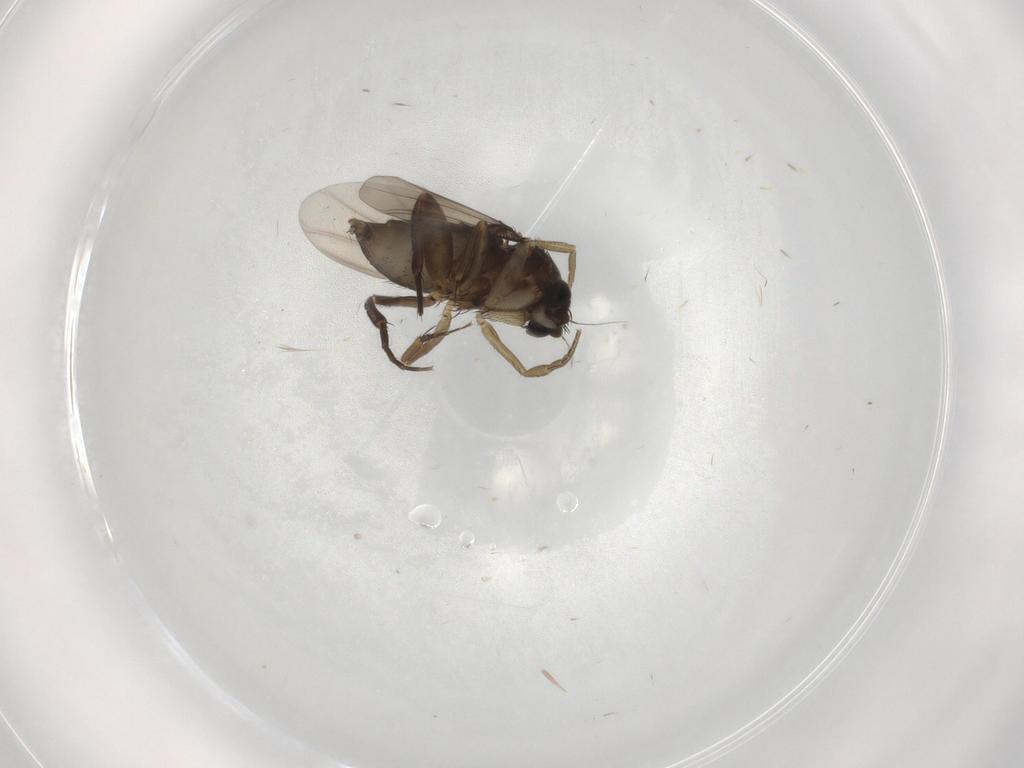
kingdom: Animalia
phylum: Arthropoda
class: Insecta
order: Diptera
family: Phoridae
